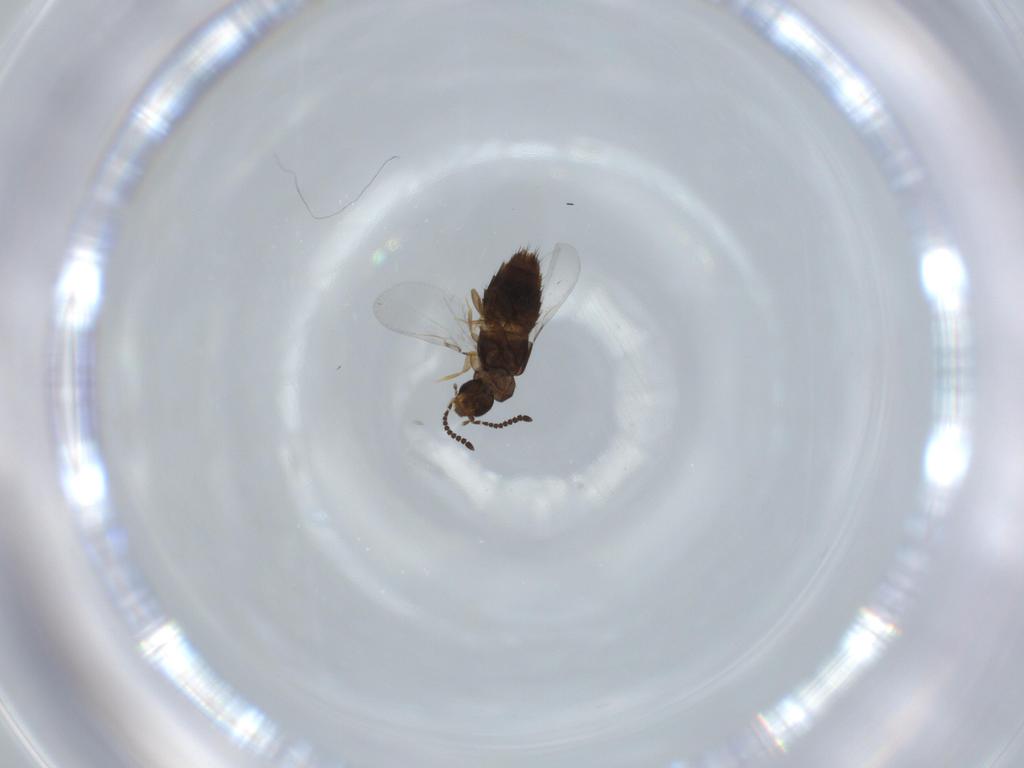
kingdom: Animalia
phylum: Arthropoda
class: Insecta
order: Coleoptera
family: Staphylinidae
